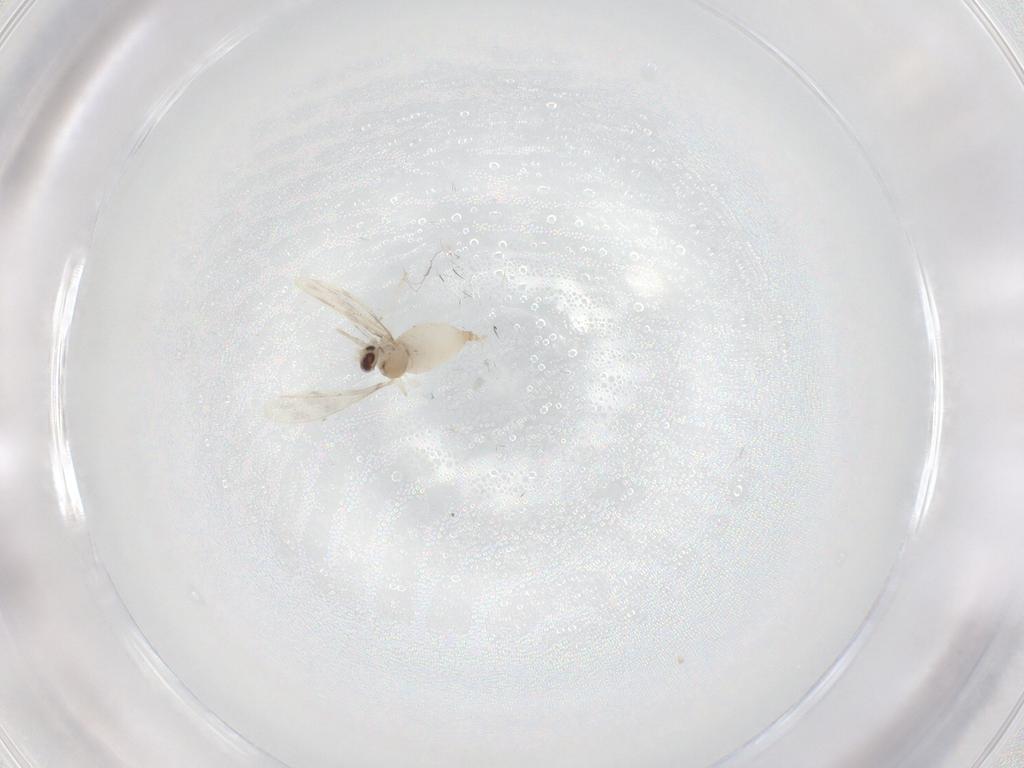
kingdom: Animalia
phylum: Arthropoda
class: Insecta
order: Diptera
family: Cecidomyiidae
